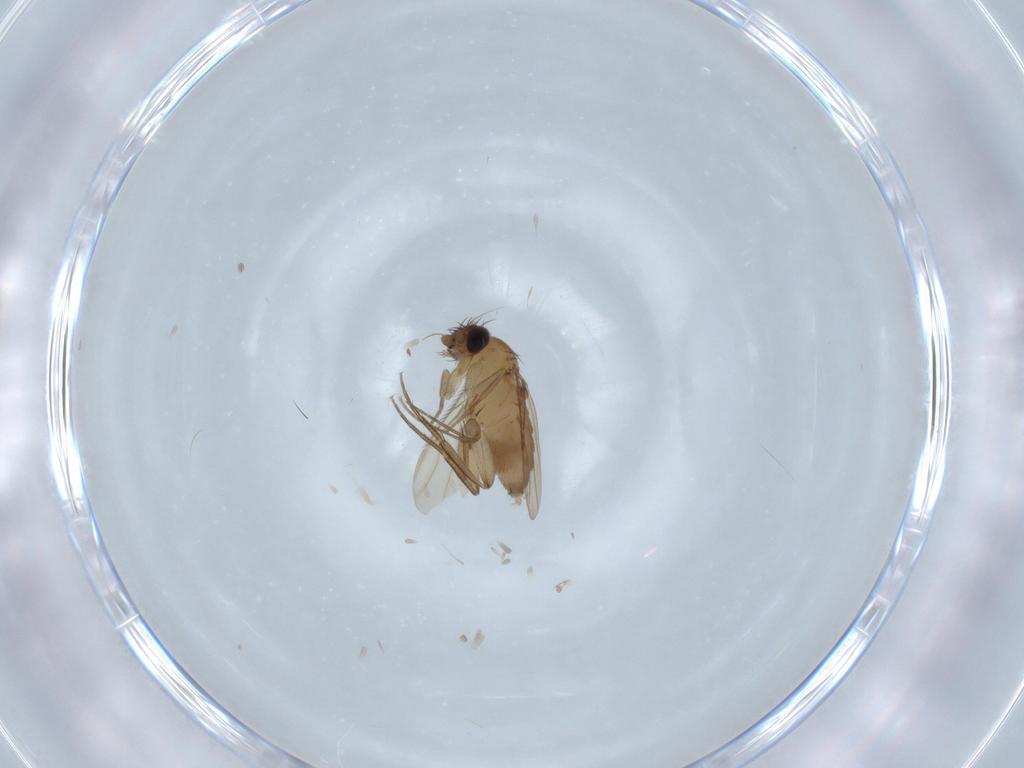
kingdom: Animalia
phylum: Arthropoda
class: Insecta
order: Diptera
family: Phoridae
